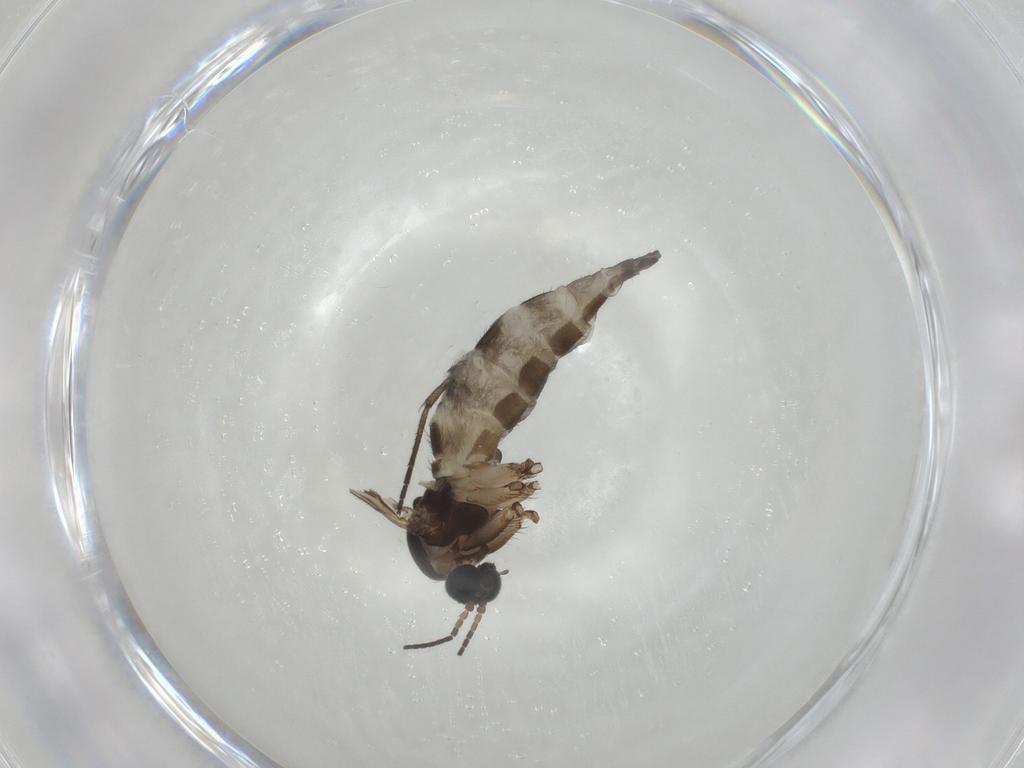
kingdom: Animalia
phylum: Arthropoda
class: Insecta
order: Diptera
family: Sciaridae
